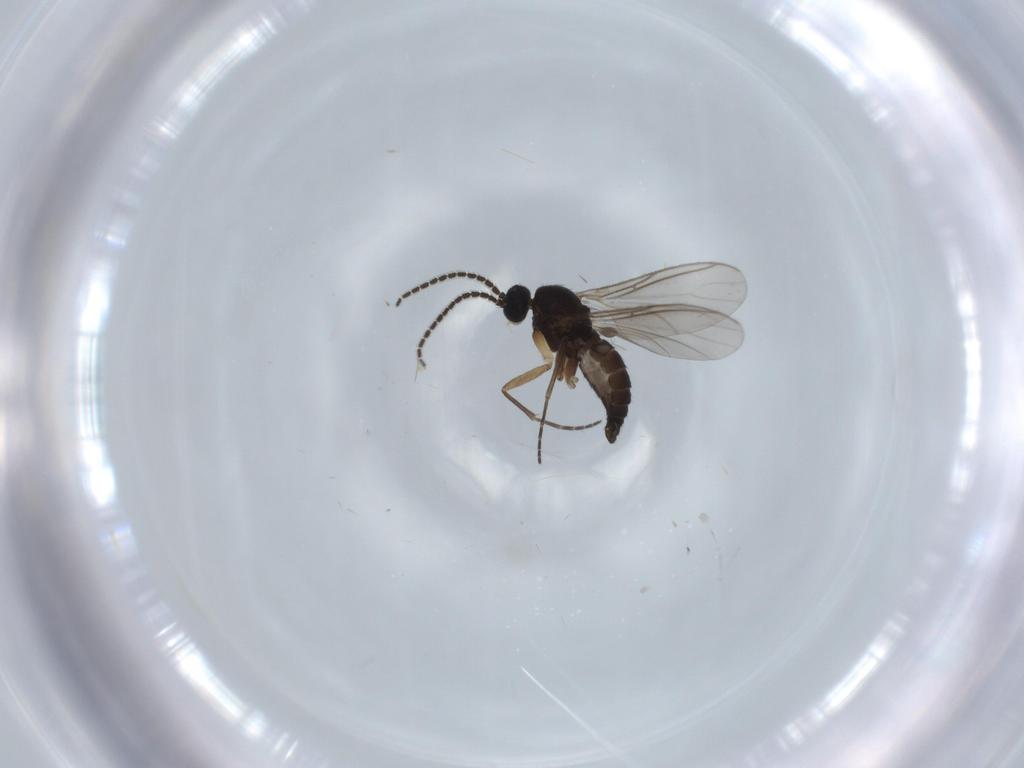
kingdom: Animalia
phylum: Arthropoda
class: Insecta
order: Diptera
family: Sciaridae
